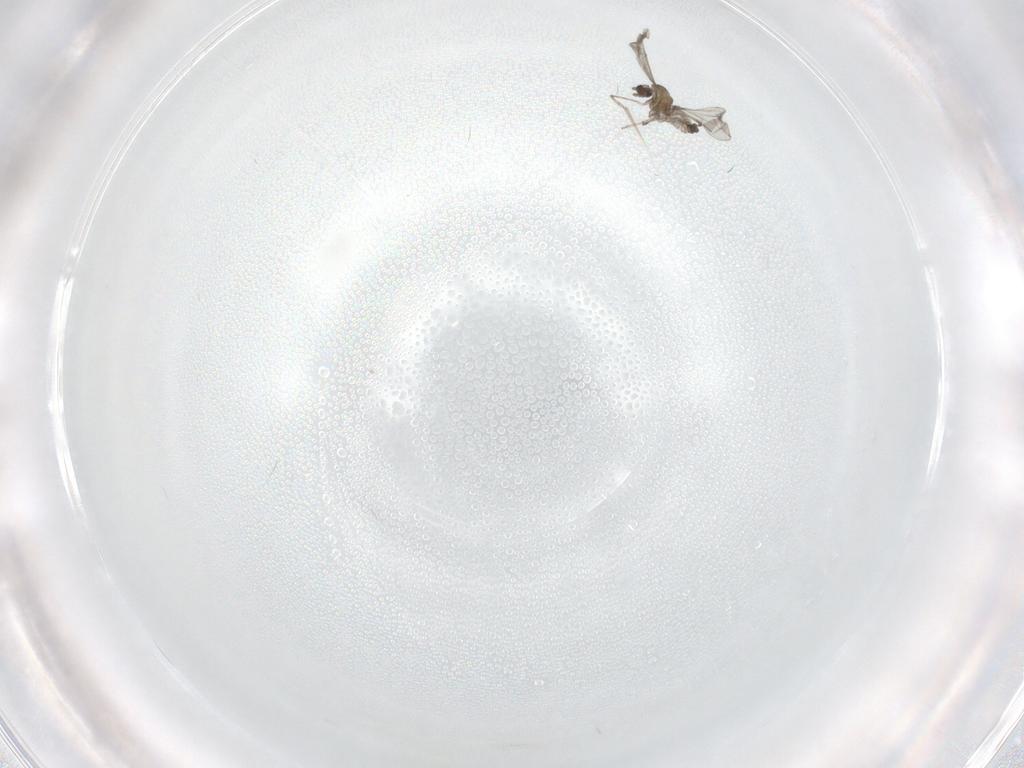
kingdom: Animalia
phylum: Arthropoda
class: Insecta
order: Diptera
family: Cecidomyiidae
